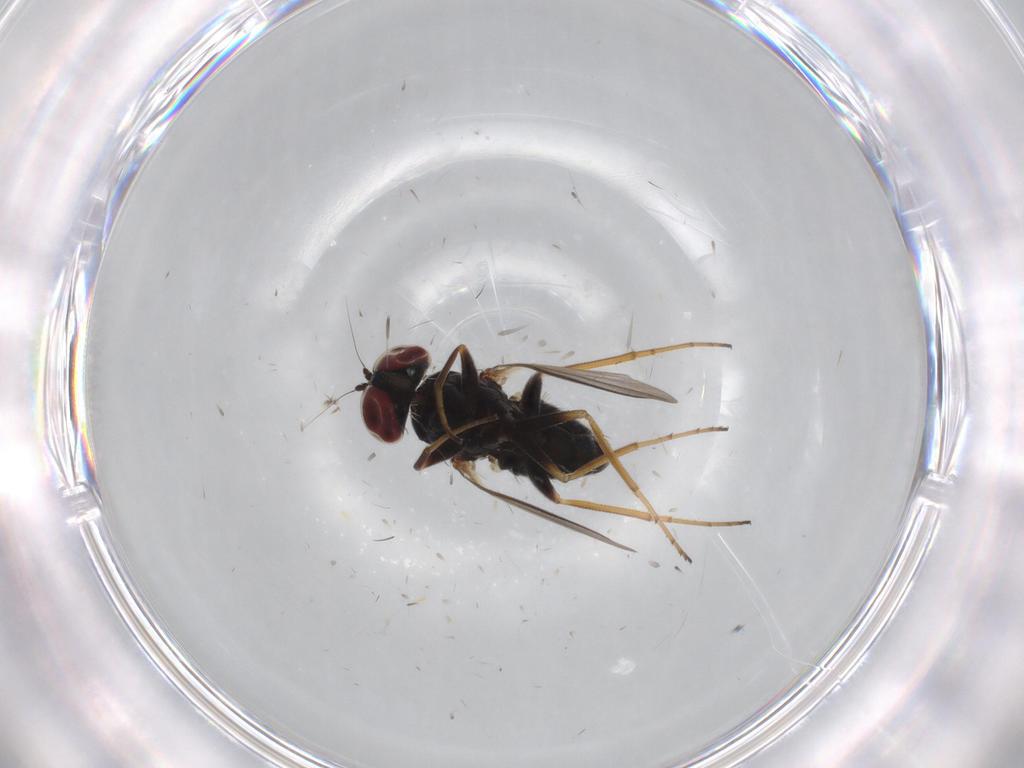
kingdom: Animalia
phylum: Arthropoda
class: Insecta
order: Diptera
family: Dolichopodidae
